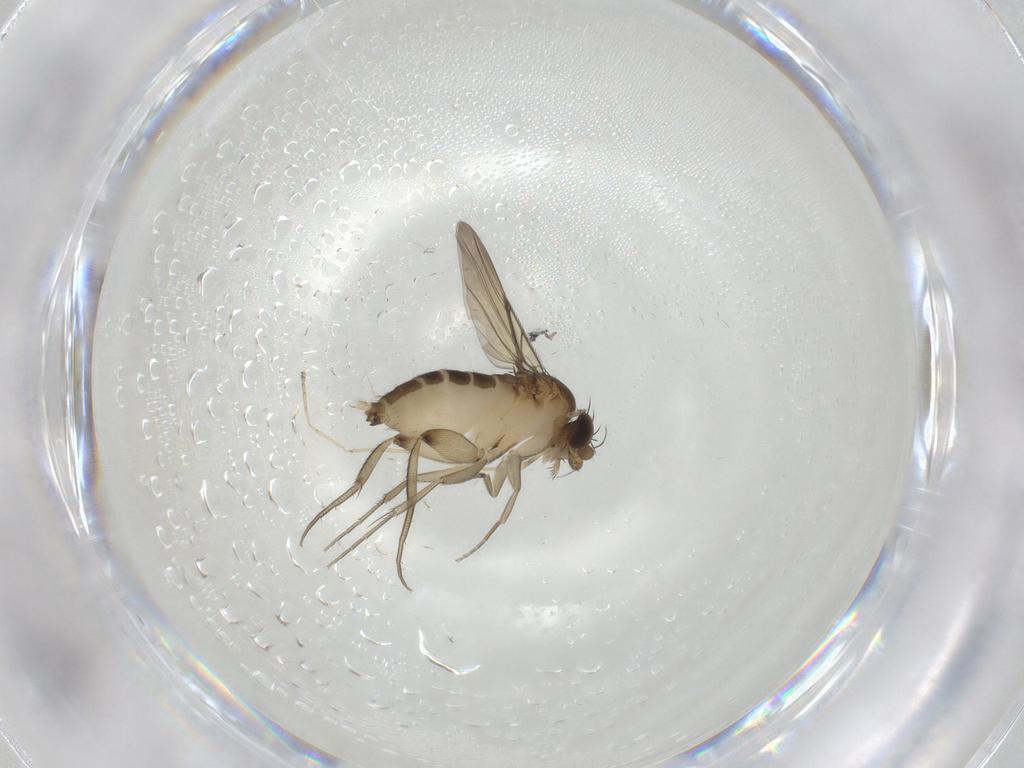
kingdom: Animalia
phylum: Arthropoda
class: Insecta
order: Diptera
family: Phoridae
